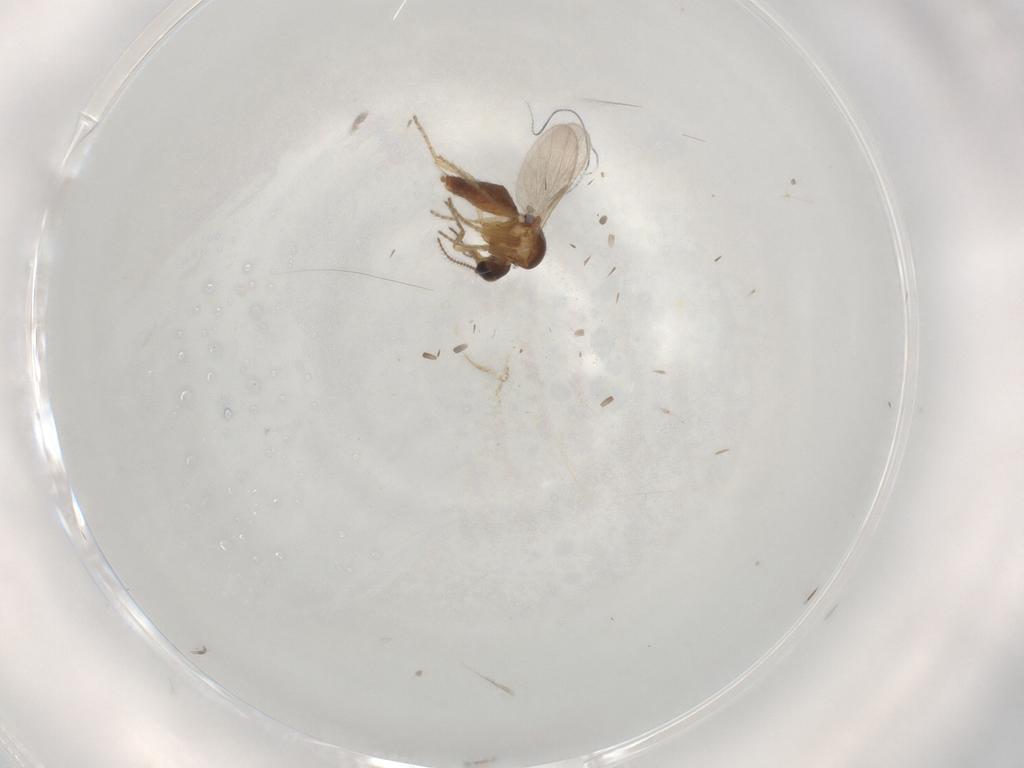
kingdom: Animalia
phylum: Arthropoda
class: Insecta
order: Diptera
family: Ceratopogonidae
